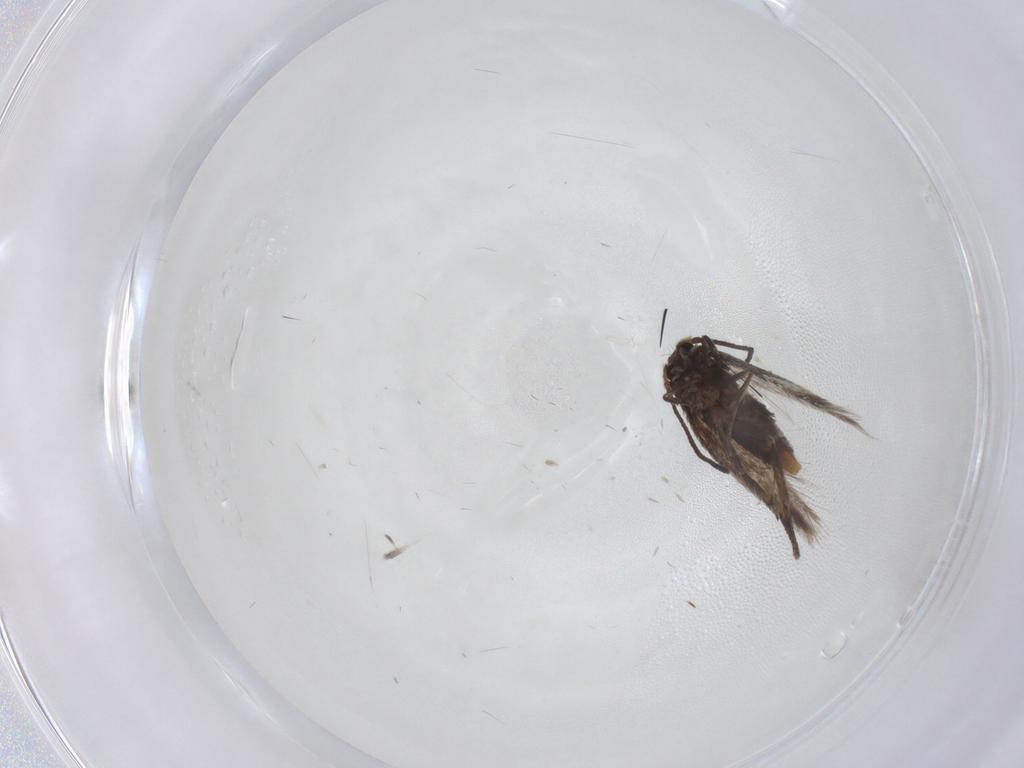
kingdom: Animalia
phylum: Arthropoda
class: Insecta
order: Lepidoptera
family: Nepticulidae
